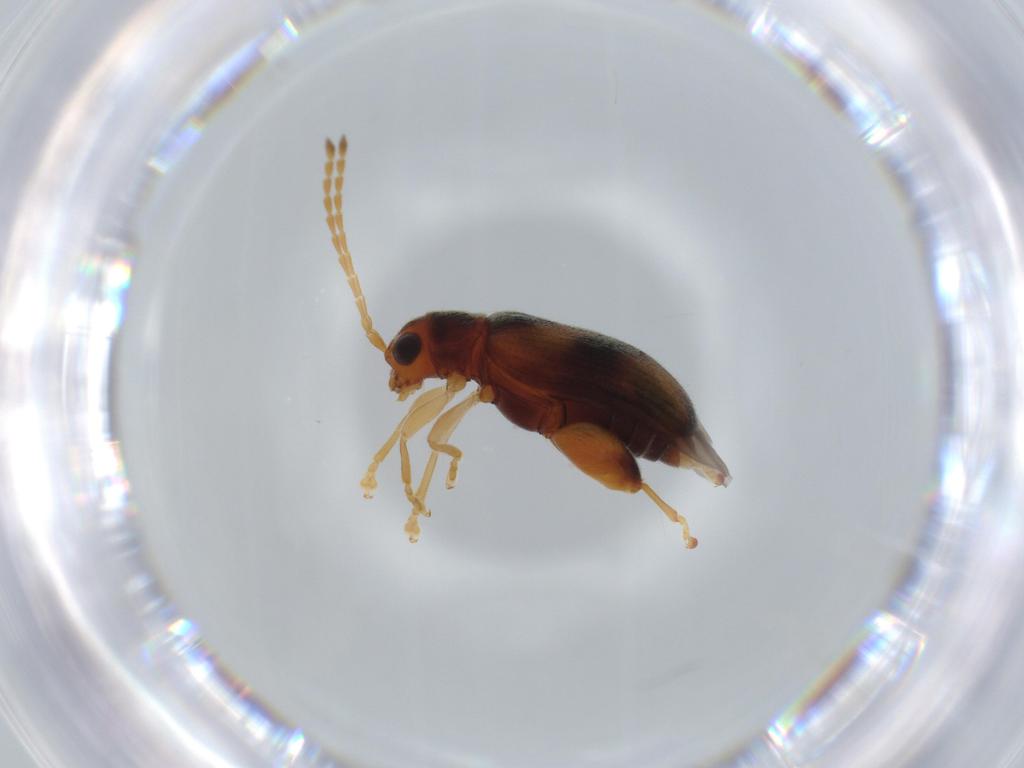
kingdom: Animalia
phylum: Arthropoda
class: Insecta
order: Coleoptera
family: Chrysomelidae
